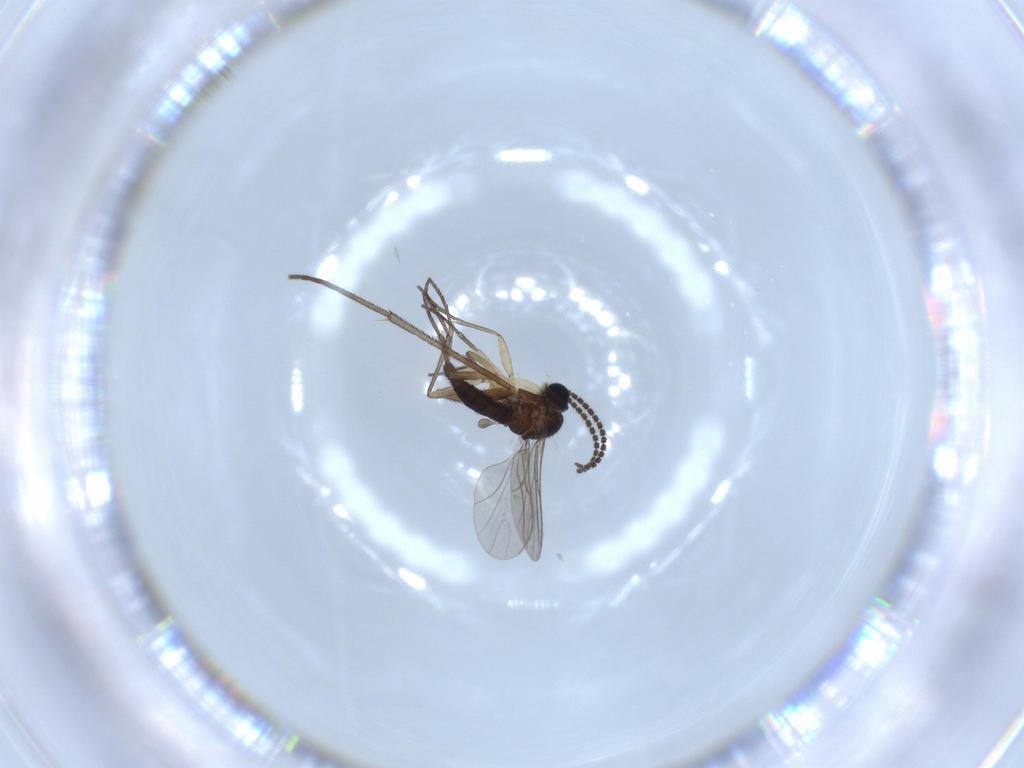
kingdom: Animalia
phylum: Arthropoda
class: Insecta
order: Diptera
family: Sciaridae
